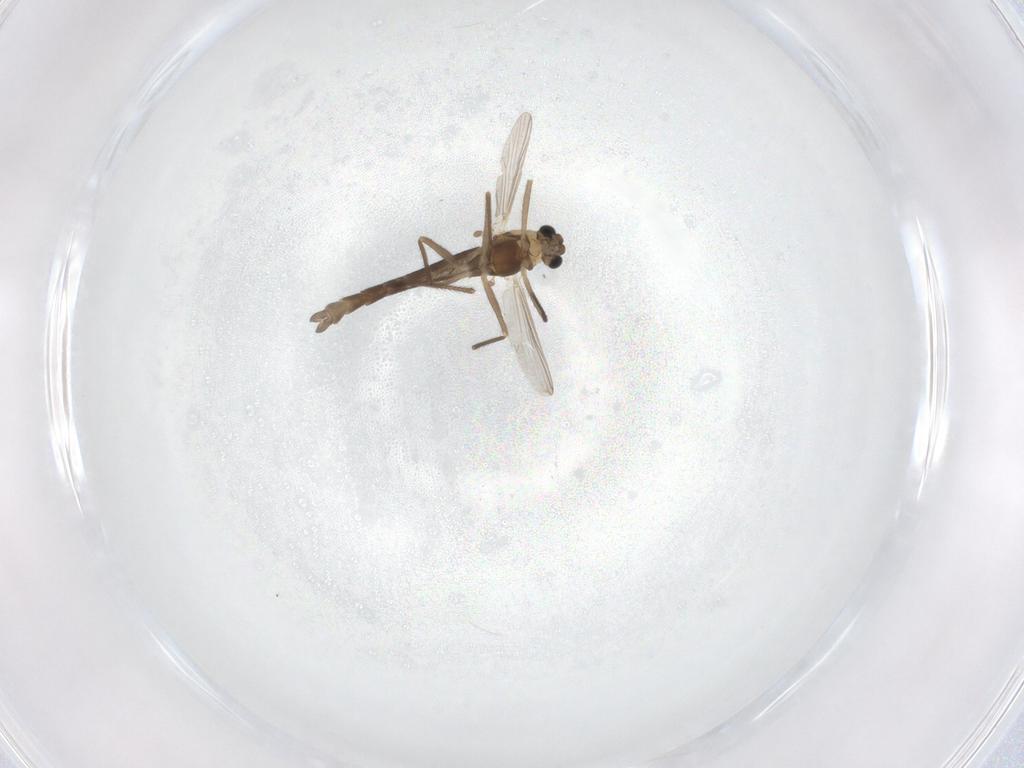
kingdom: Animalia
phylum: Arthropoda
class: Insecta
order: Diptera
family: Chironomidae
